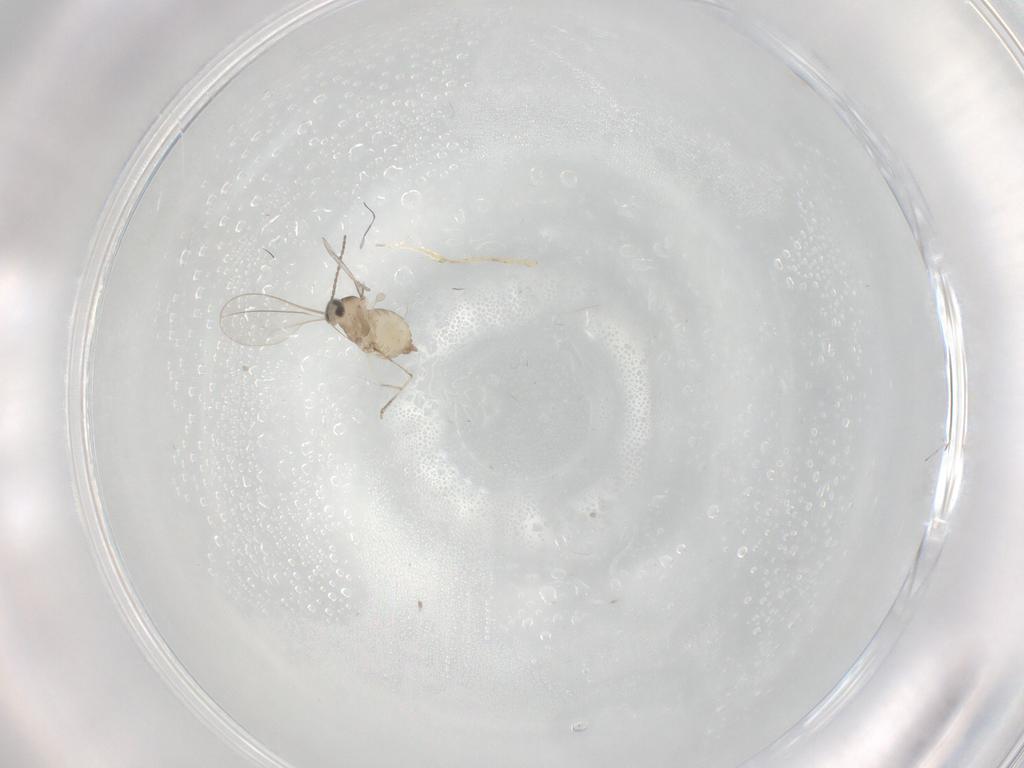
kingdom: Animalia
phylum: Arthropoda
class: Insecta
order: Diptera
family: Cecidomyiidae
